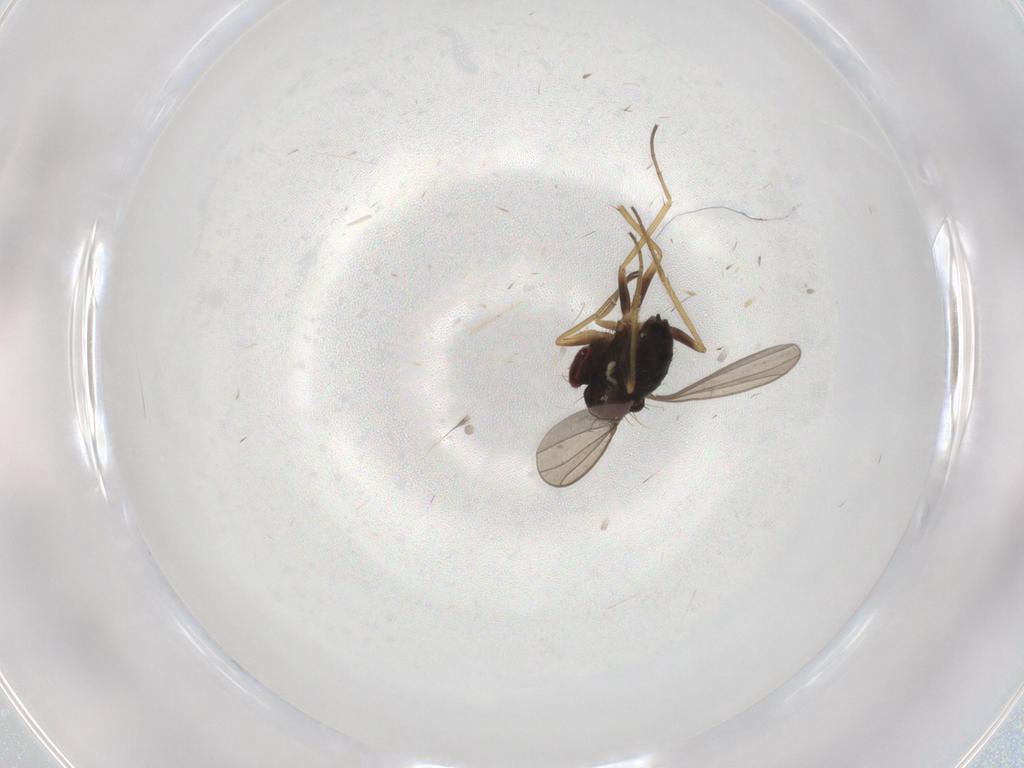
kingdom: Animalia
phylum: Arthropoda
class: Insecta
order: Diptera
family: Dolichopodidae
